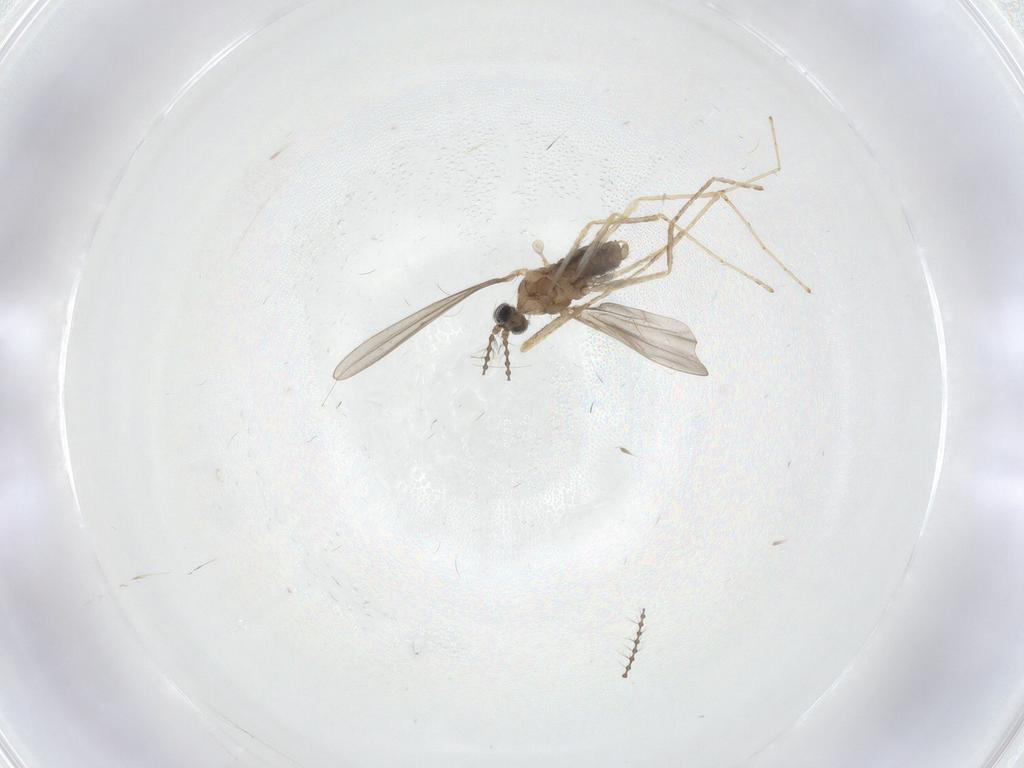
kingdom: Animalia
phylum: Arthropoda
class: Insecta
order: Diptera
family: Cecidomyiidae
